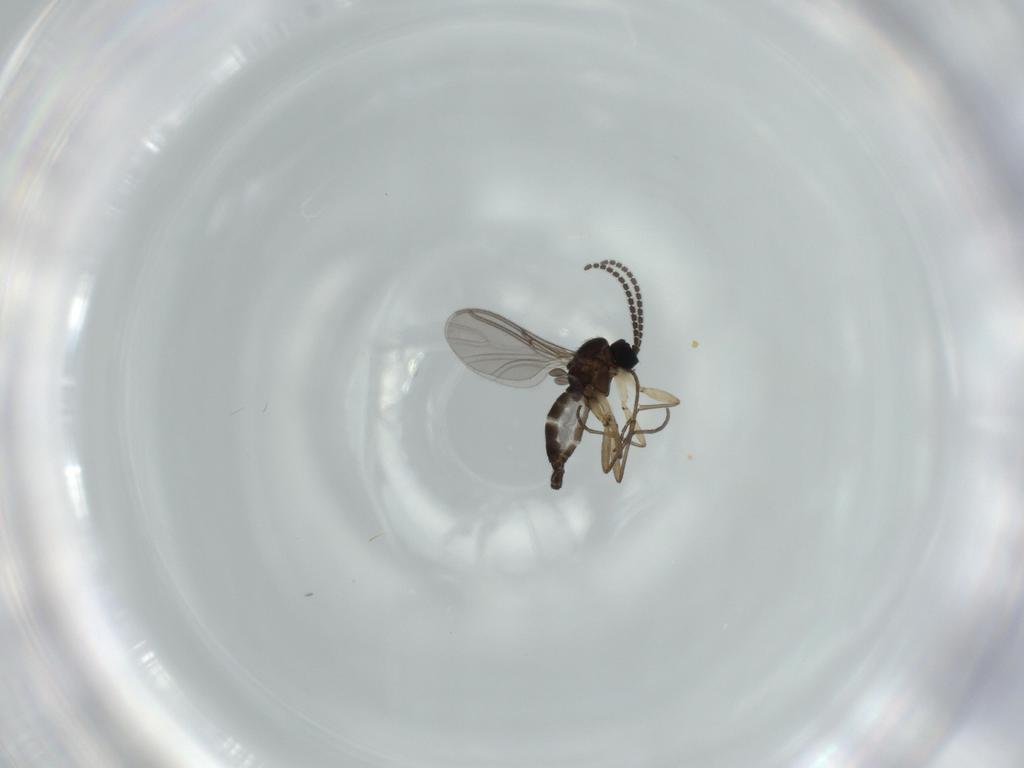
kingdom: Animalia
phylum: Arthropoda
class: Insecta
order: Diptera
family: Sciaridae
